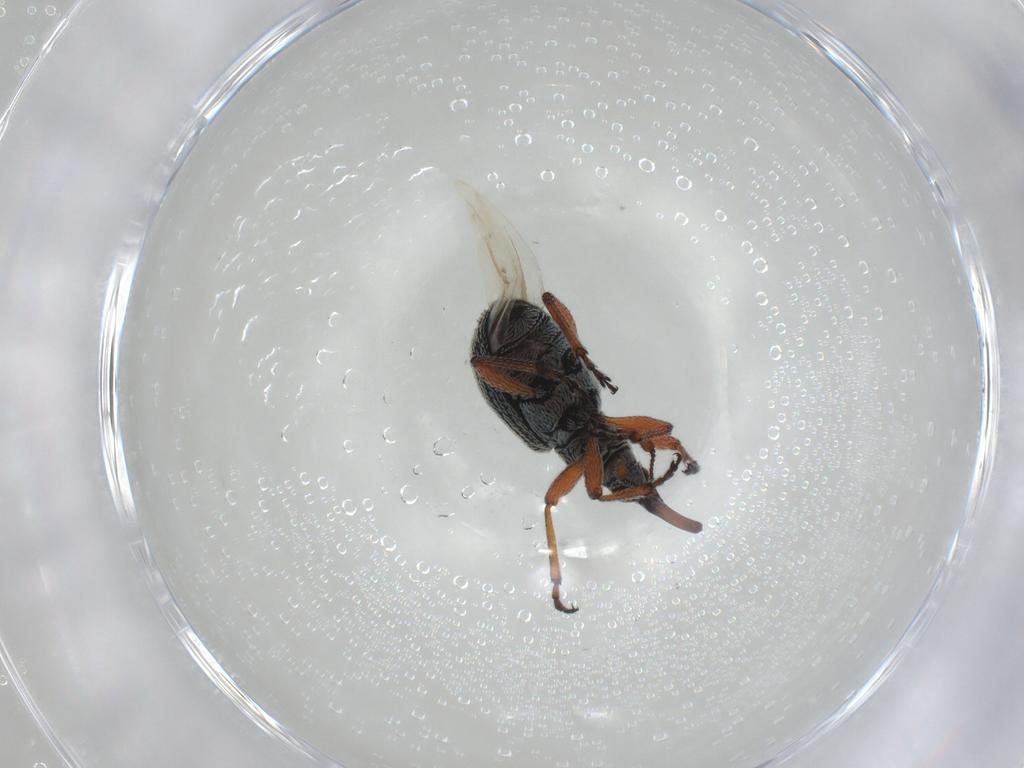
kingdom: Animalia
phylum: Arthropoda
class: Insecta
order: Coleoptera
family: Brentidae
